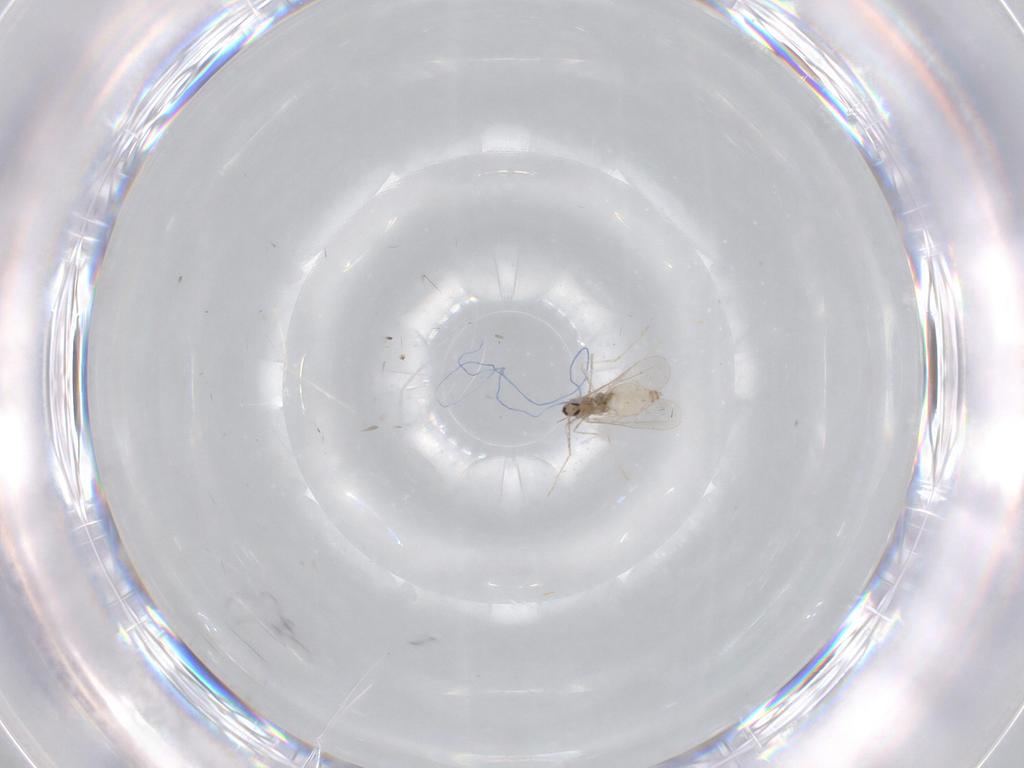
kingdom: Animalia
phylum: Arthropoda
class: Insecta
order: Diptera
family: Cecidomyiidae
